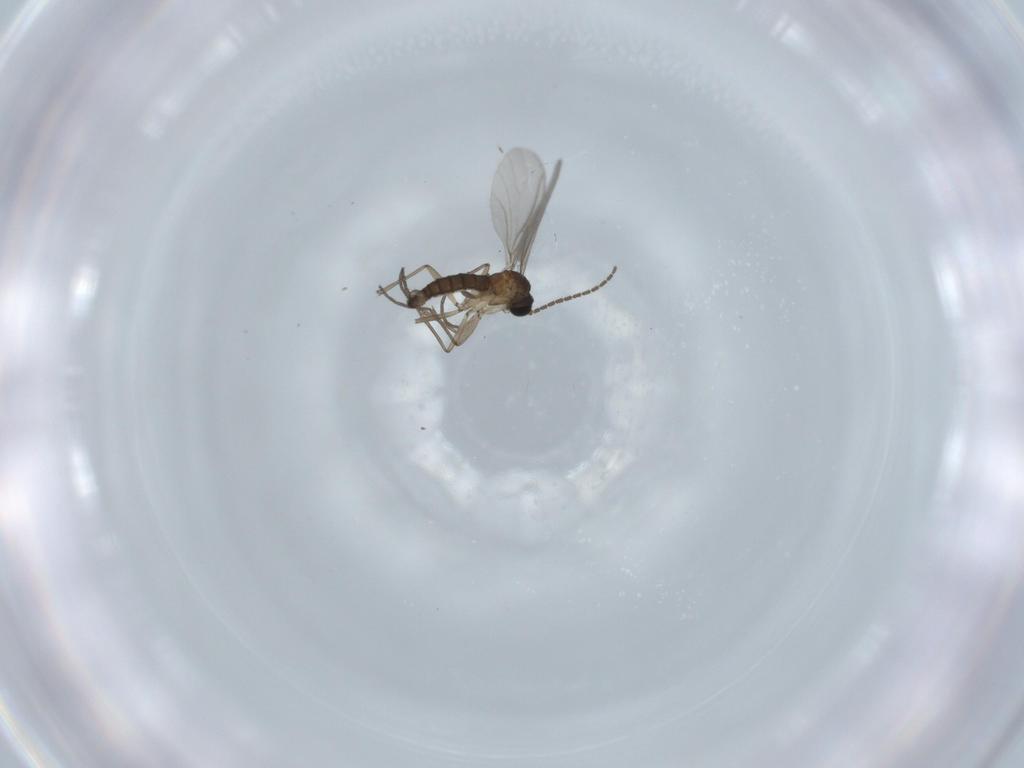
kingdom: Animalia
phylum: Arthropoda
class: Insecta
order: Diptera
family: Sciaridae
